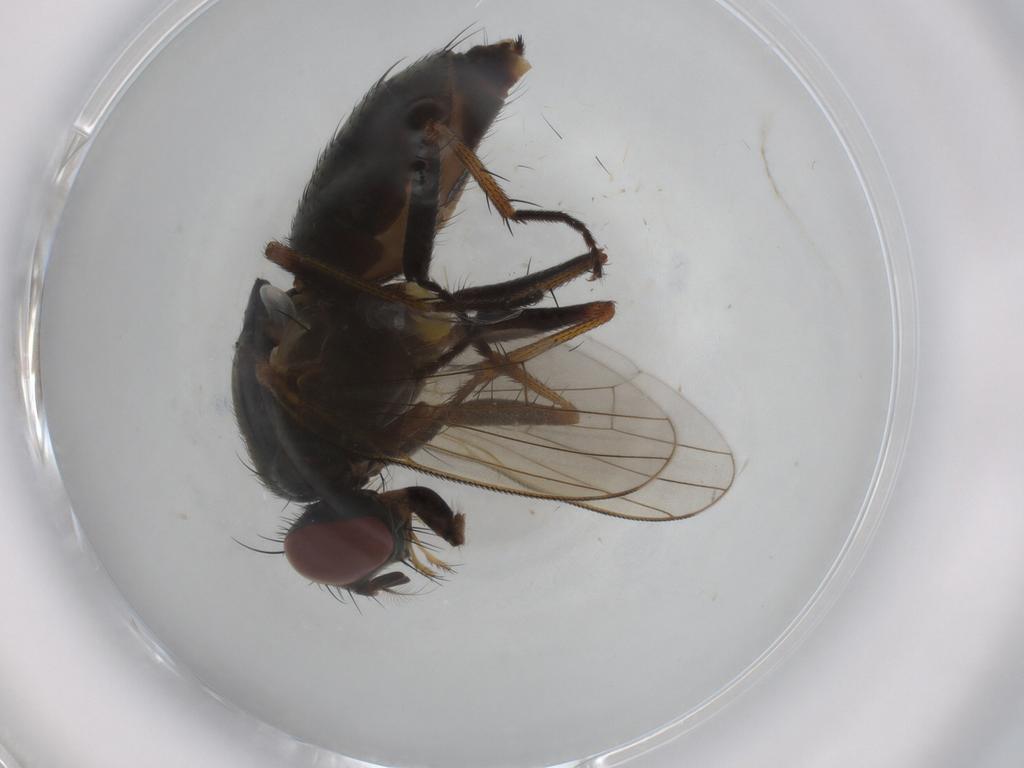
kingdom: Animalia
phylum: Arthropoda
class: Insecta
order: Diptera
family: Muscidae
